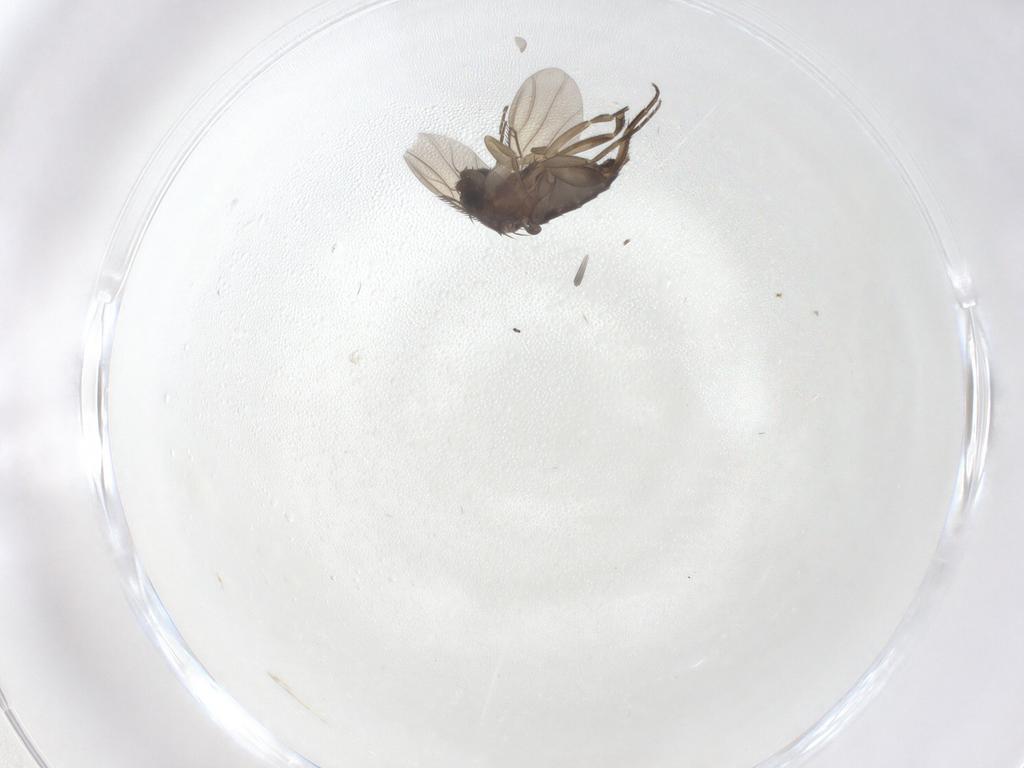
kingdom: Animalia
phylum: Arthropoda
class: Insecta
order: Diptera
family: Phoridae
